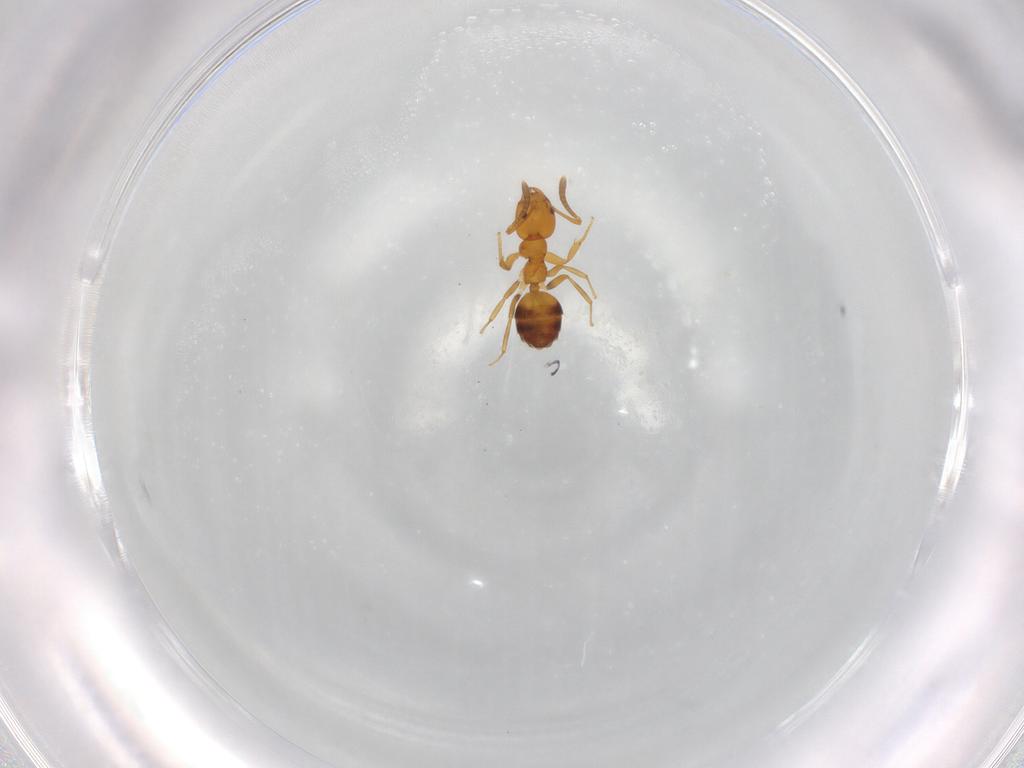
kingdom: Animalia
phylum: Arthropoda
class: Insecta
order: Hymenoptera
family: Formicidae
